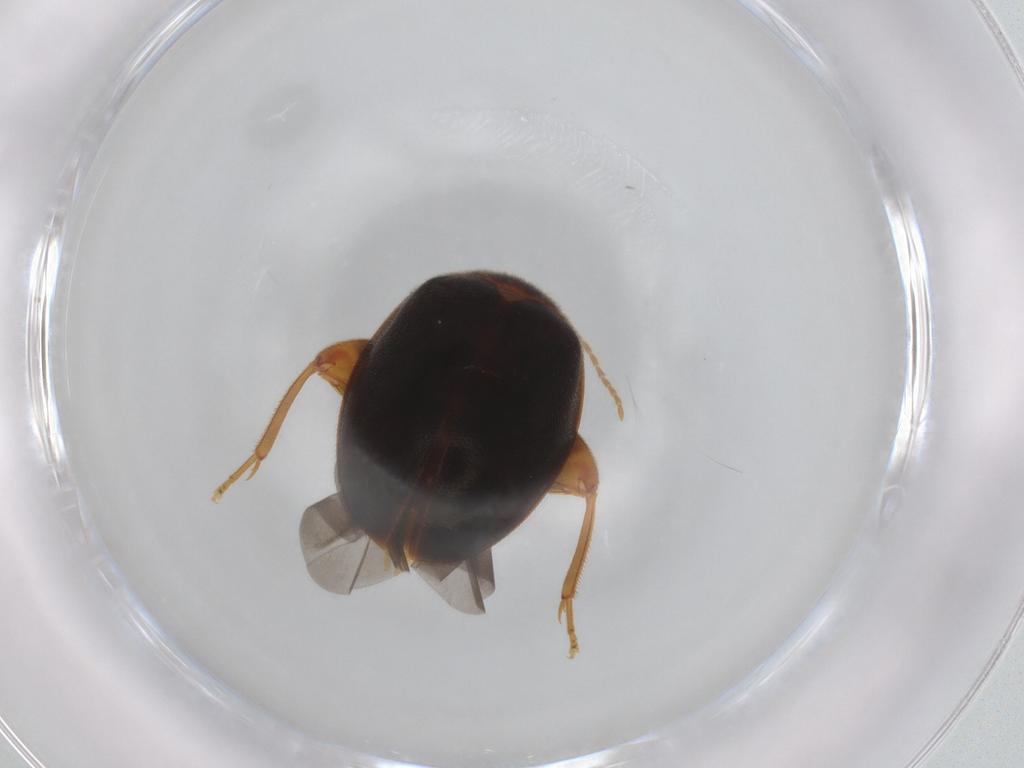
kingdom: Animalia
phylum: Arthropoda
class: Insecta
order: Coleoptera
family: Scirtidae
